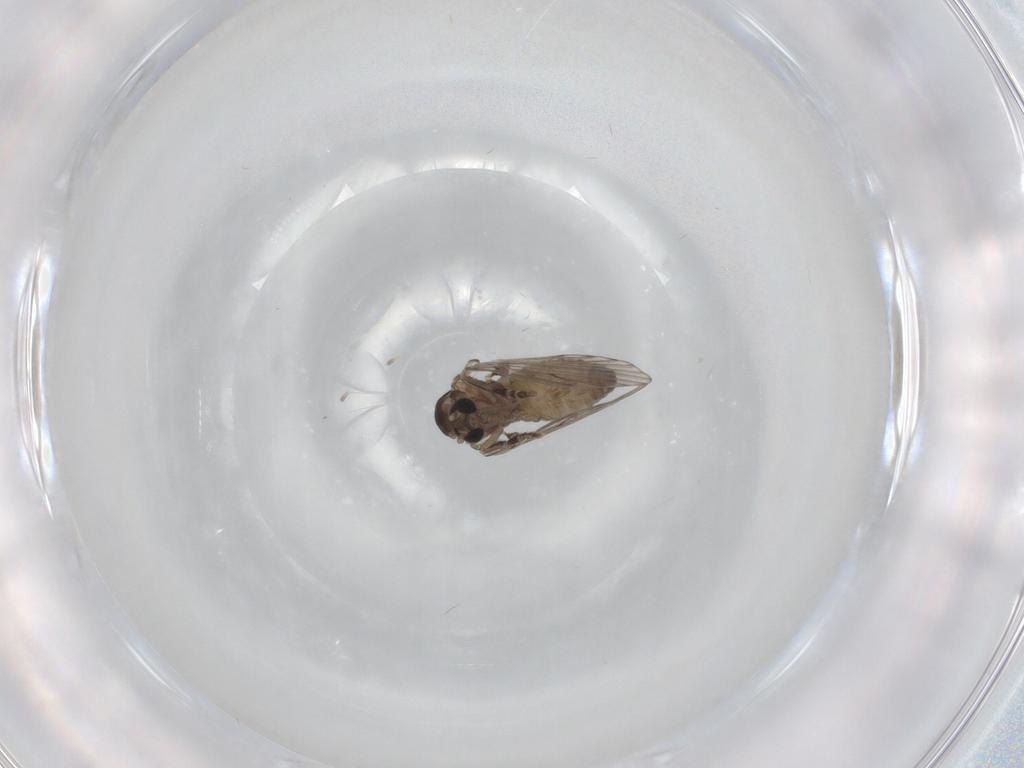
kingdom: Animalia
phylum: Arthropoda
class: Insecta
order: Diptera
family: Psychodidae
